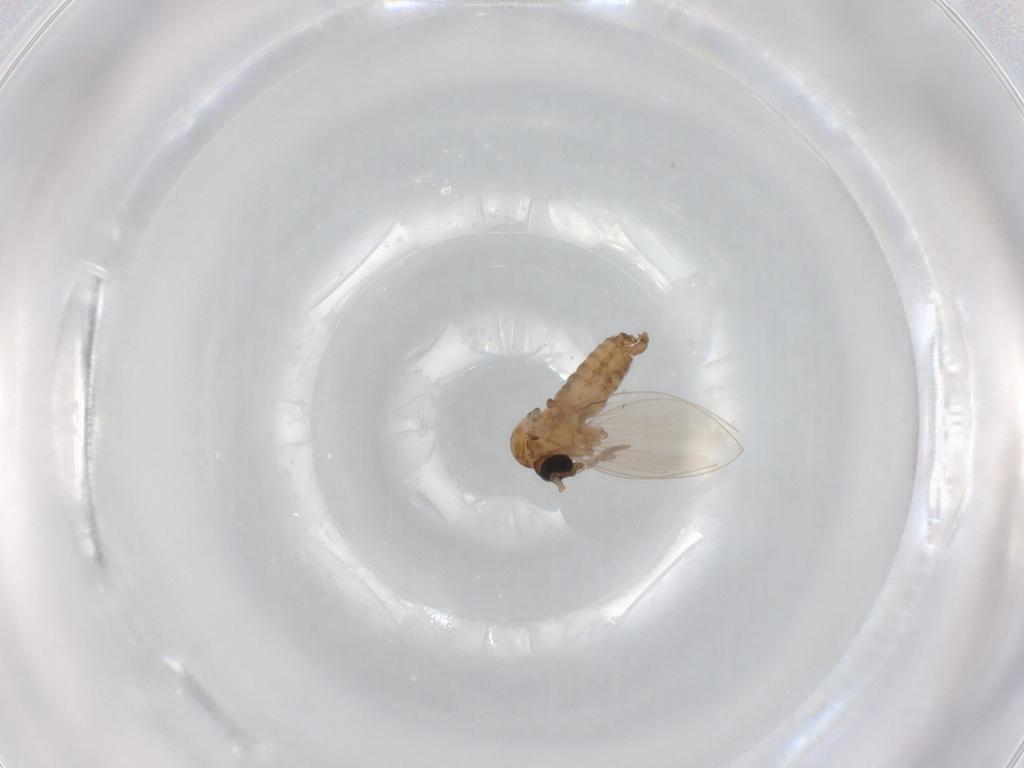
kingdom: Animalia
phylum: Arthropoda
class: Insecta
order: Diptera
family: Psychodidae
